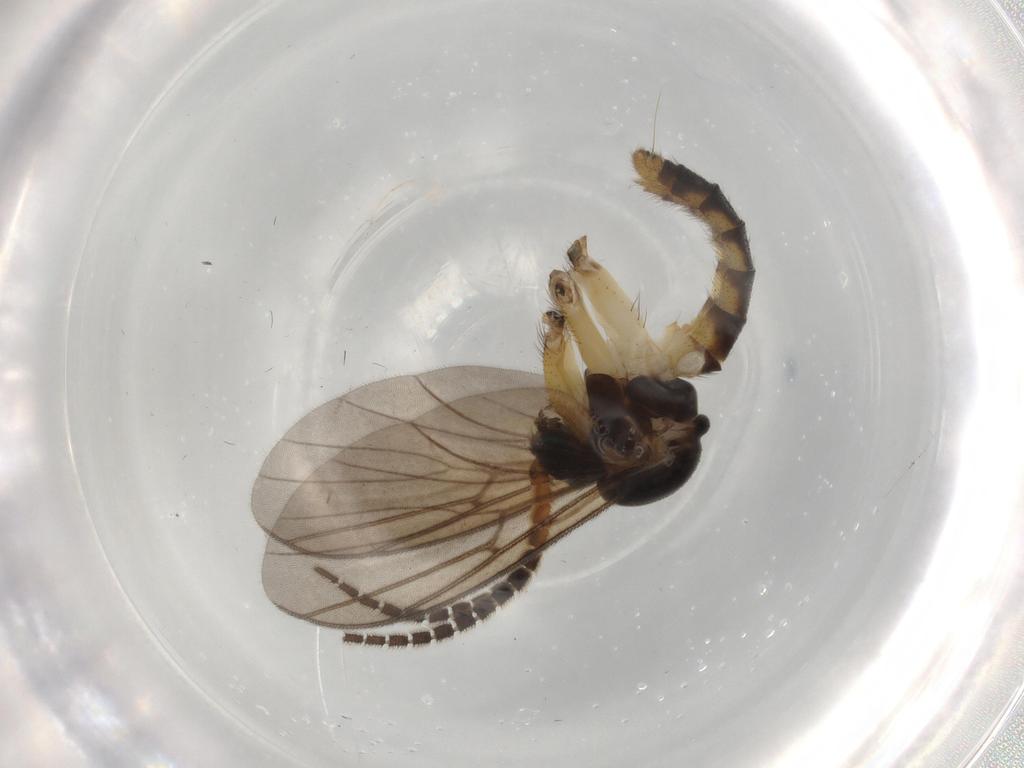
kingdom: Animalia
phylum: Arthropoda
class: Insecta
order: Diptera
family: Mycetophilidae
